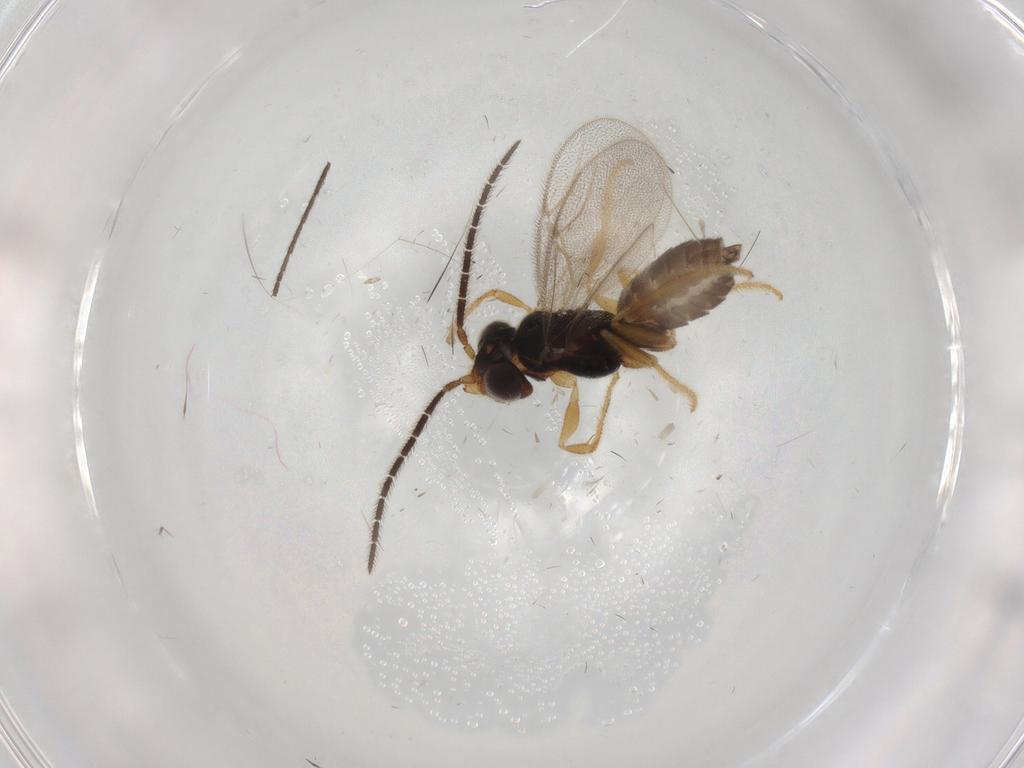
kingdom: Animalia
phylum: Arthropoda
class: Insecta
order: Hymenoptera
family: Dryinidae
